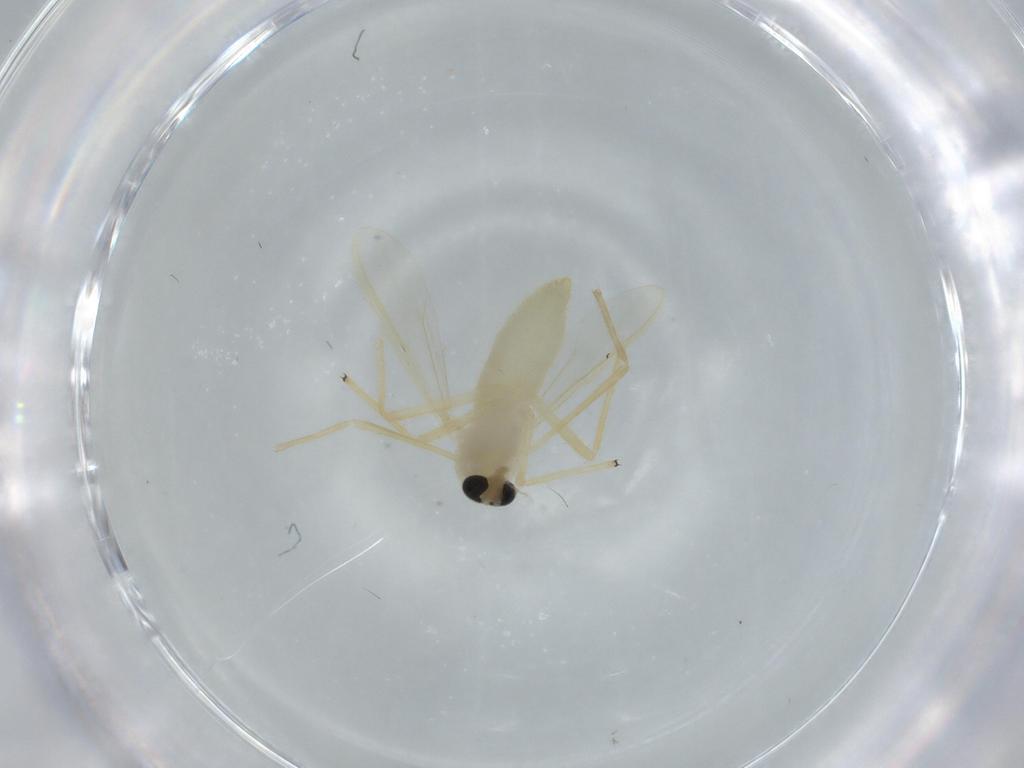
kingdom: Animalia
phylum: Arthropoda
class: Insecta
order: Diptera
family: Chironomidae
